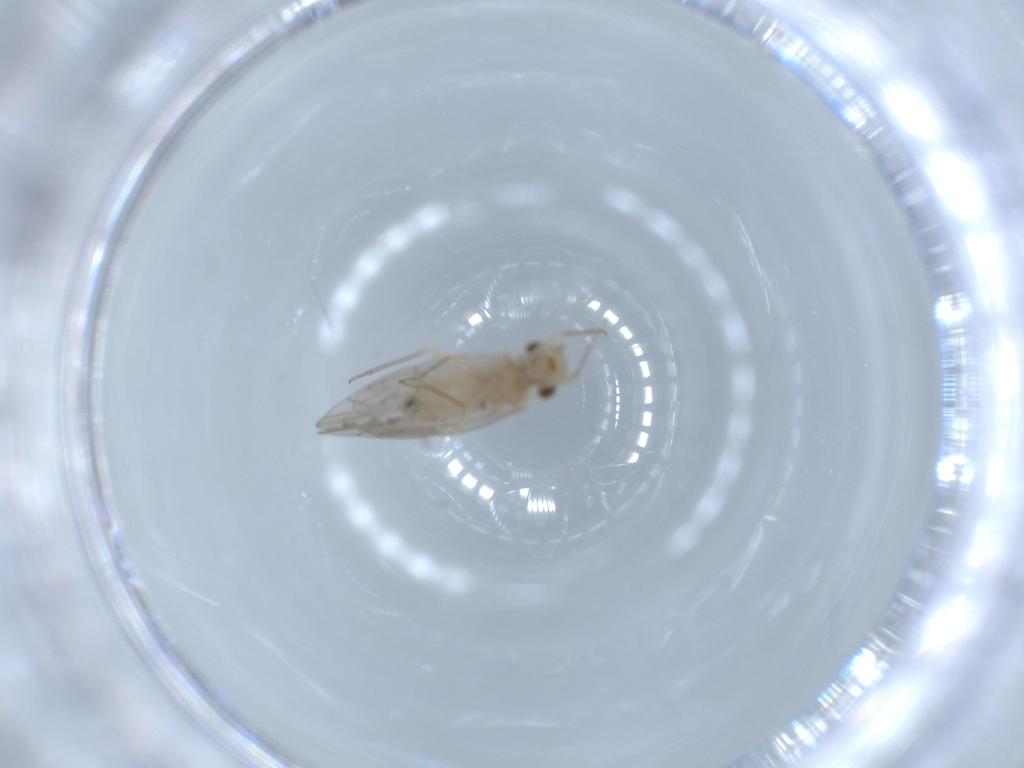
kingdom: Animalia
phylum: Arthropoda
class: Insecta
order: Psocodea
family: Lachesillidae
